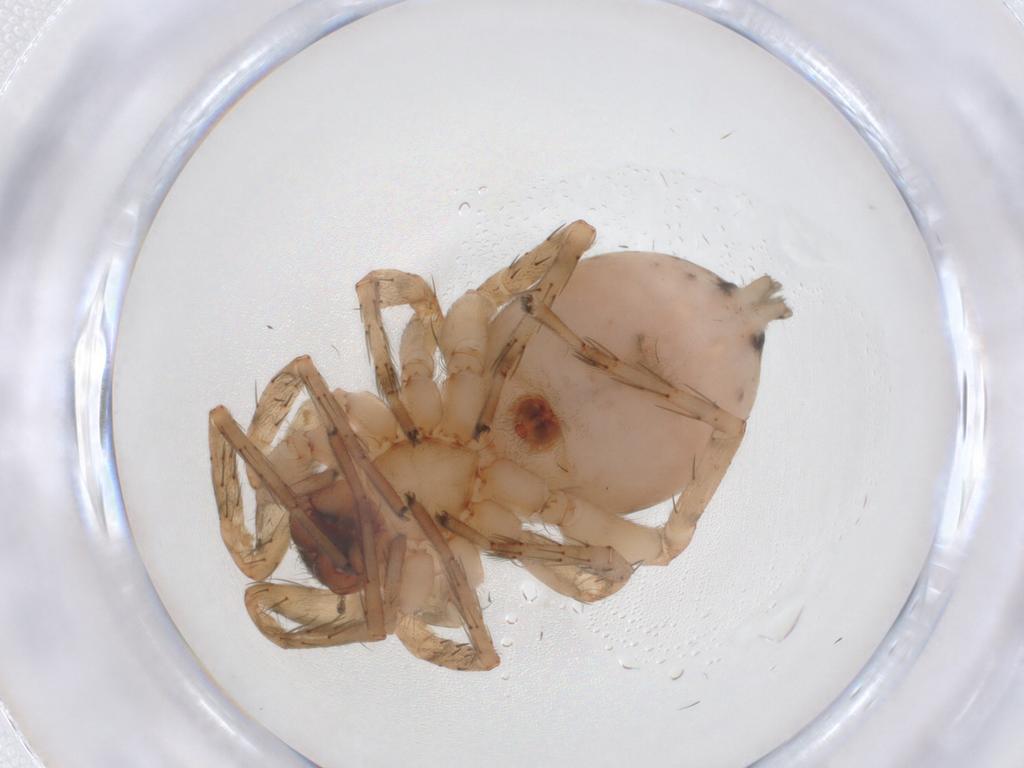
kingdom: Animalia
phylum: Arthropoda
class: Arachnida
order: Araneae
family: Anyphaenidae
